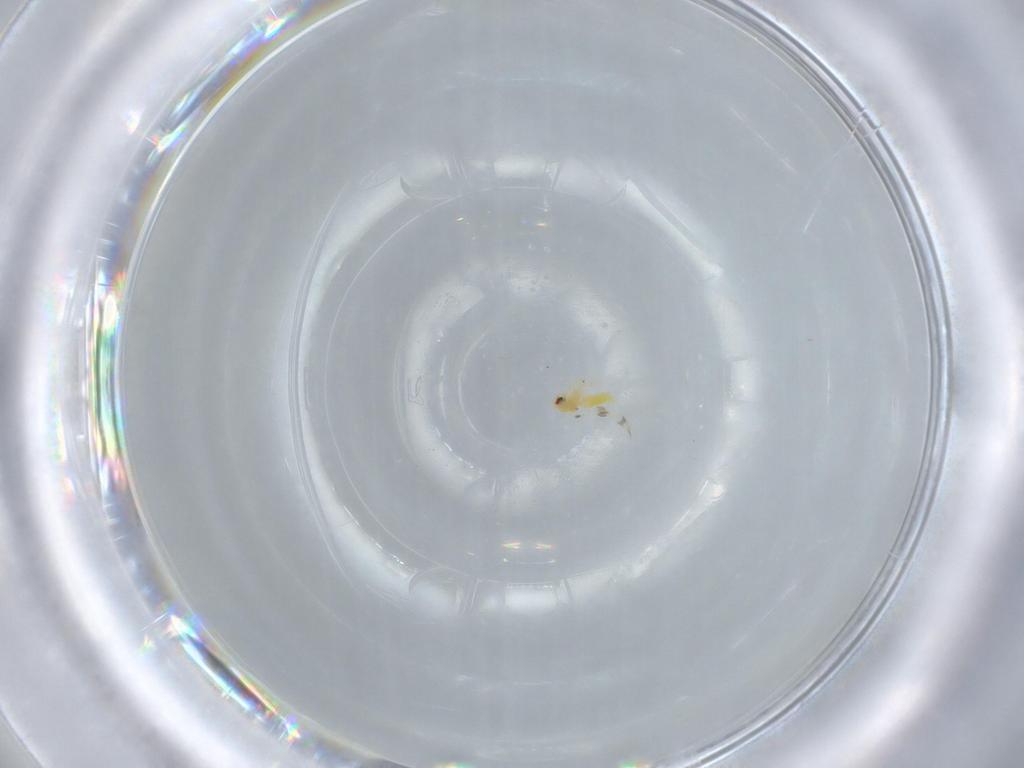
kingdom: Animalia
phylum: Arthropoda
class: Insecta
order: Hemiptera
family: Aleyrodidae
